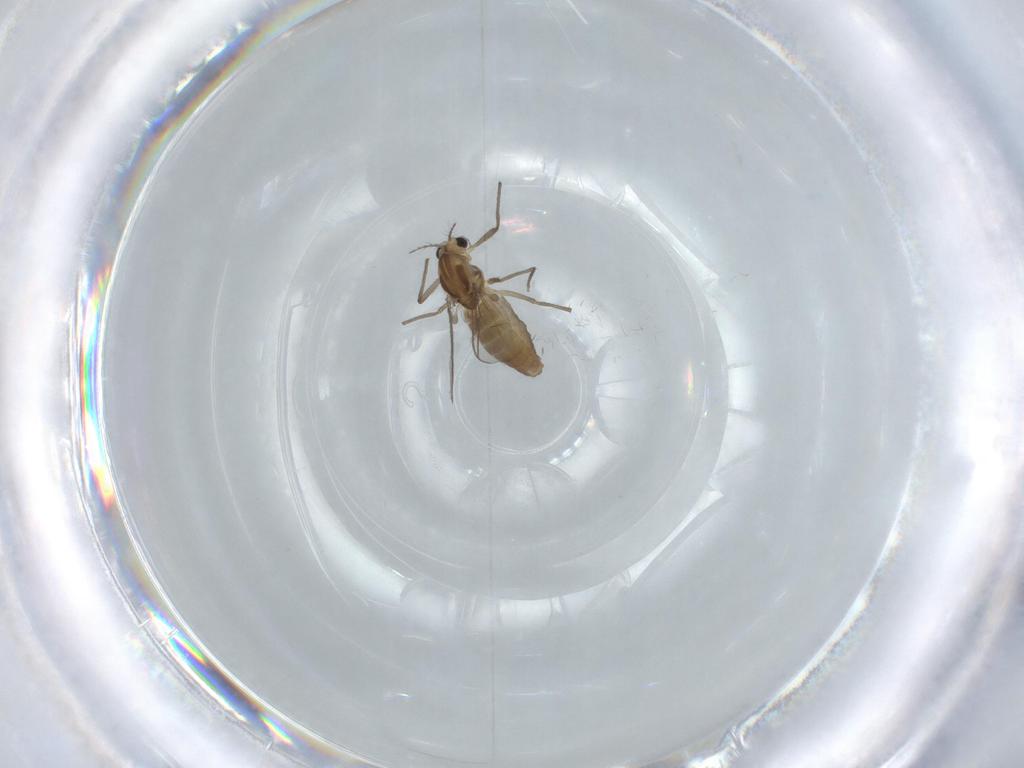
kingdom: Animalia
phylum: Arthropoda
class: Insecta
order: Diptera
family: Chironomidae
